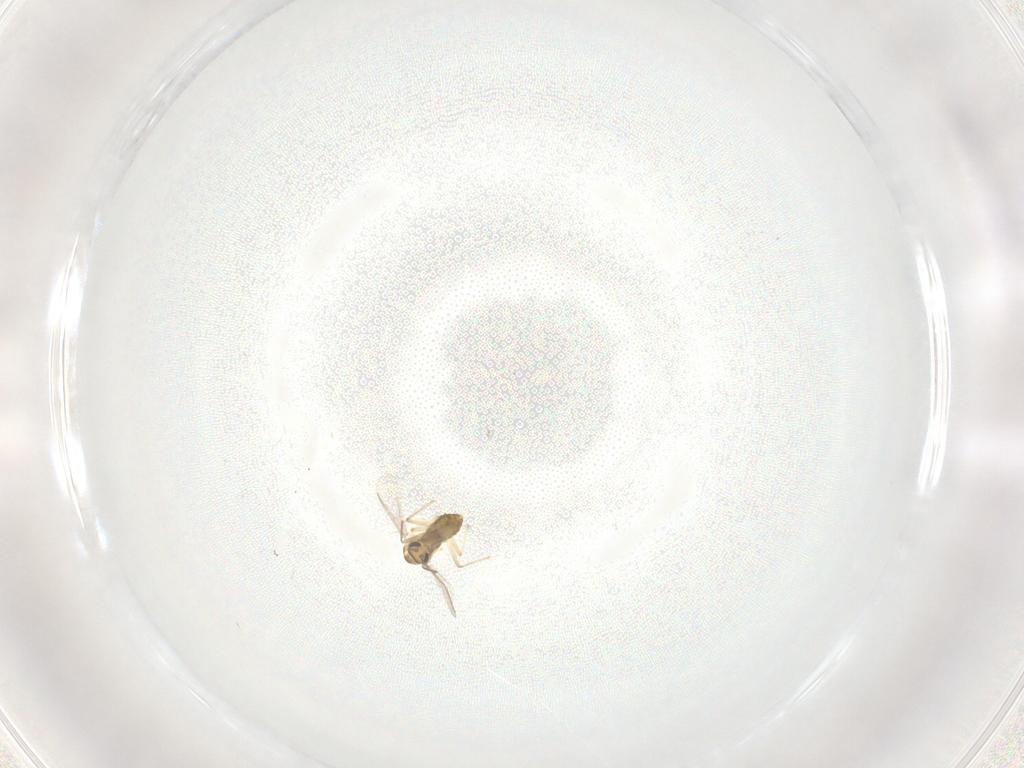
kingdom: Animalia
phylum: Arthropoda
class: Insecta
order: Diptera
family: Chironomidae
